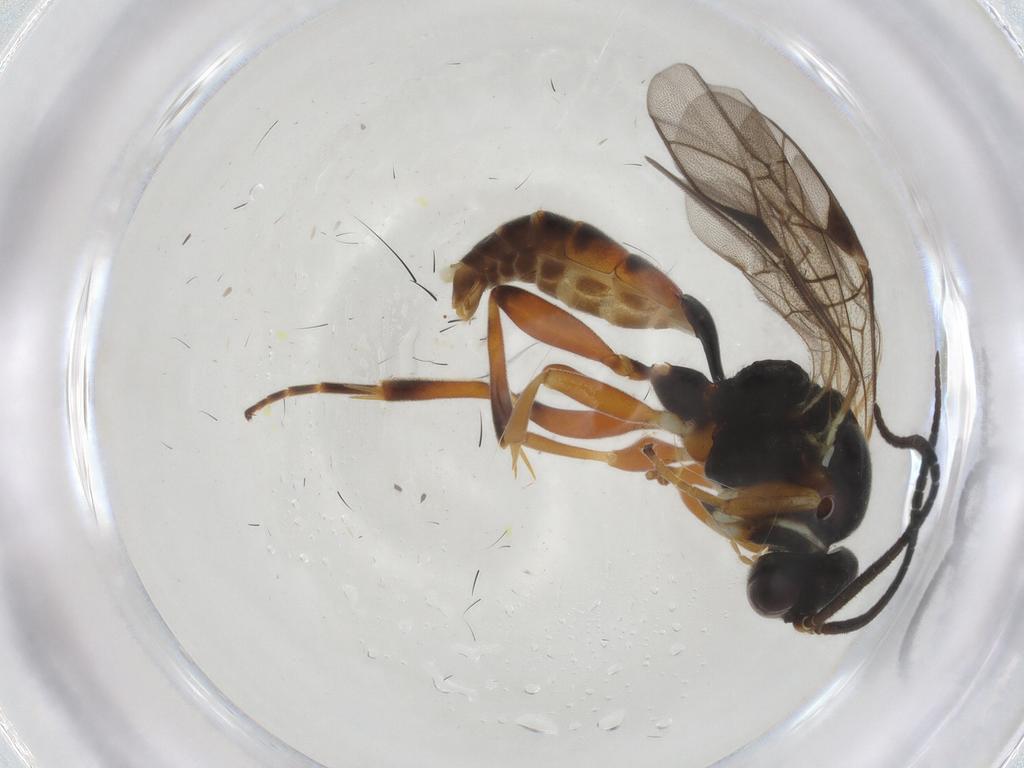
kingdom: Animalia
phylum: Arthropoda
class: Insecta
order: Hymenoptera
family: Ichneumonidae
